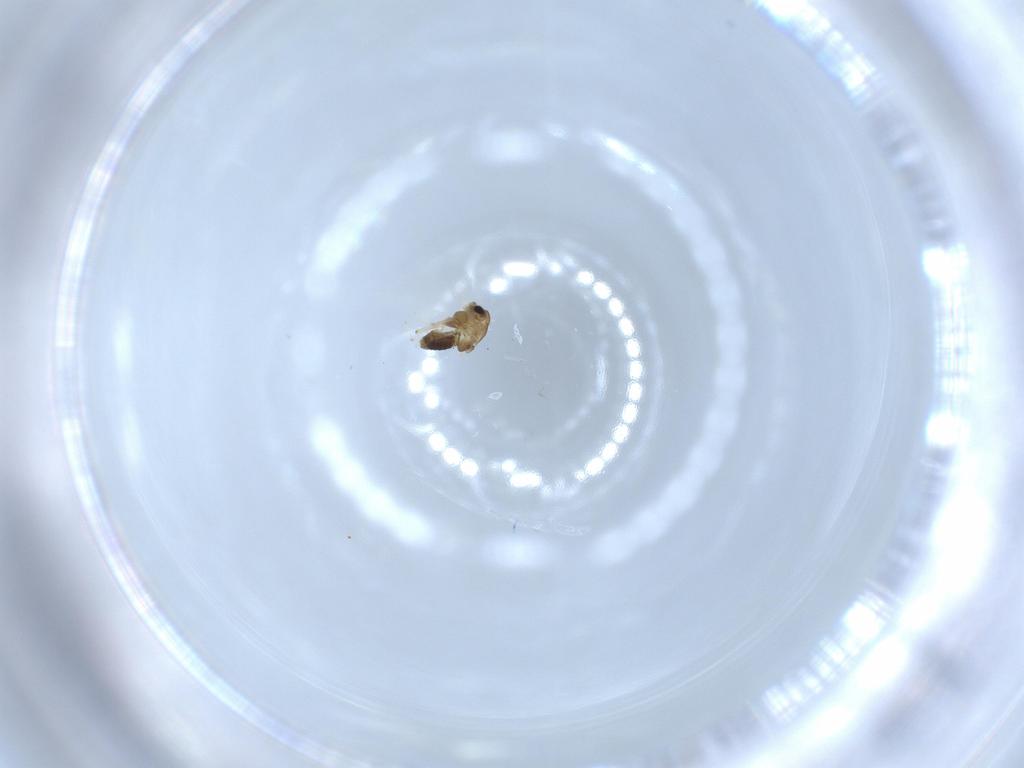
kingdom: Animalia
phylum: Arthropoda
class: Insecta
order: Diptera
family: Chironomidae
